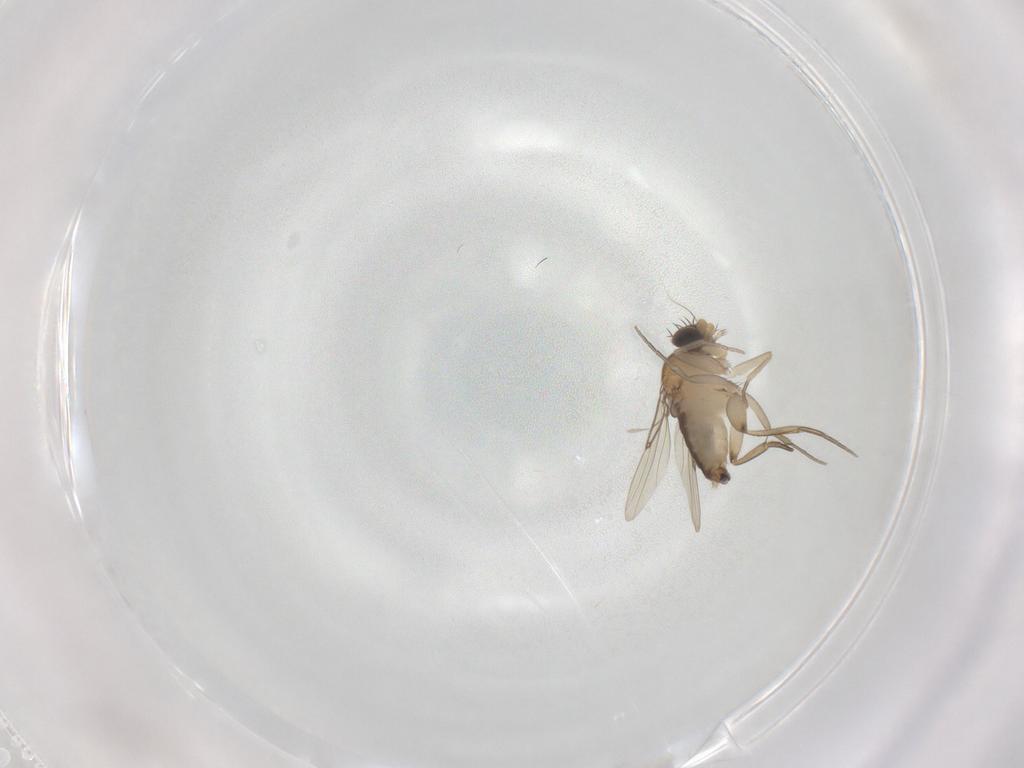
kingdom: Animalia
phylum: Arthropoda
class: Insecta
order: Diptera
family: Phoridae
